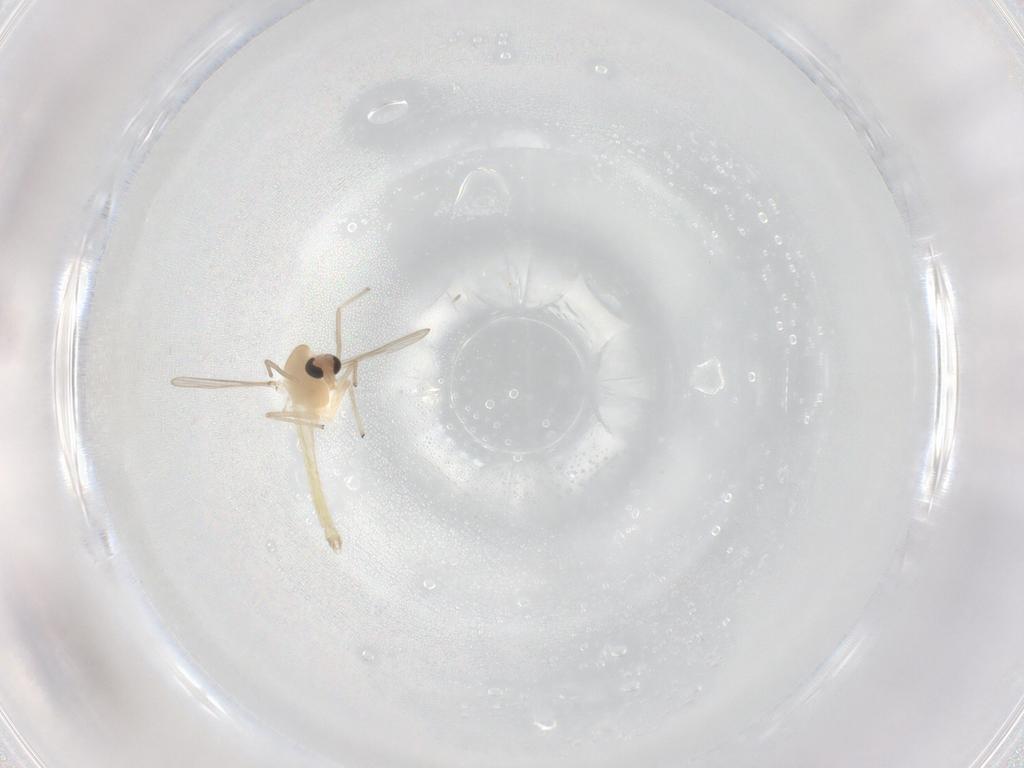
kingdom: Animalia
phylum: Arthropoda
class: Insecta
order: Diptera
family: Chironomidae
